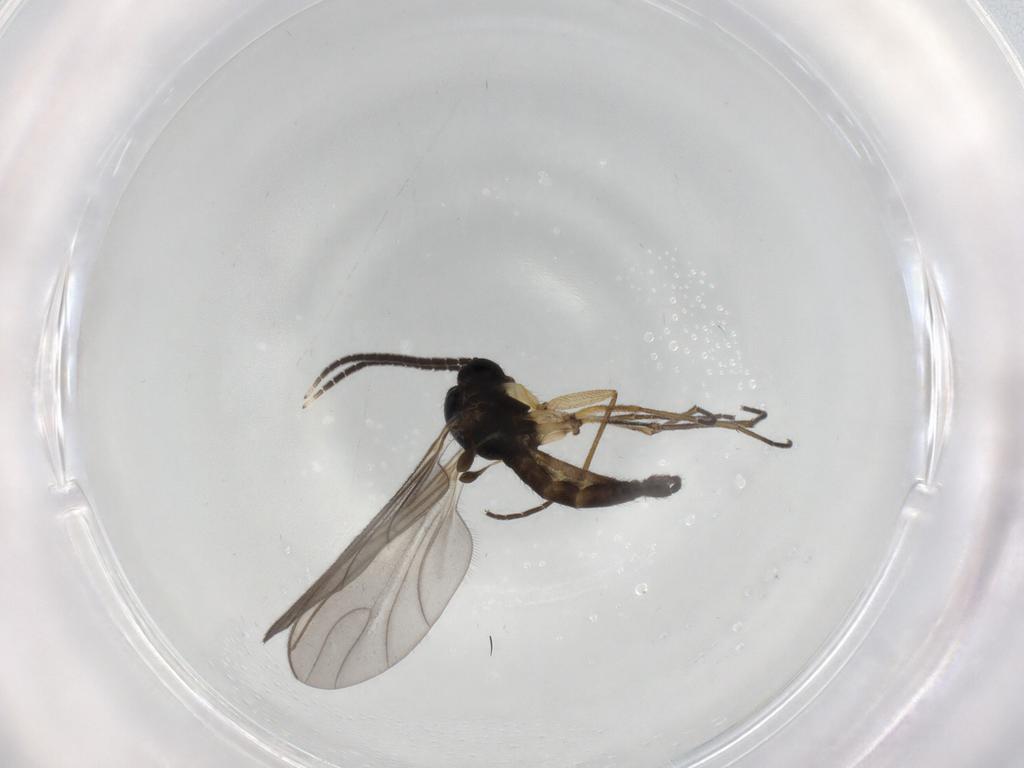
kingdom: Animalia
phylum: Arthropoda
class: Insecta
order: Diptera
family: Sciaridae
